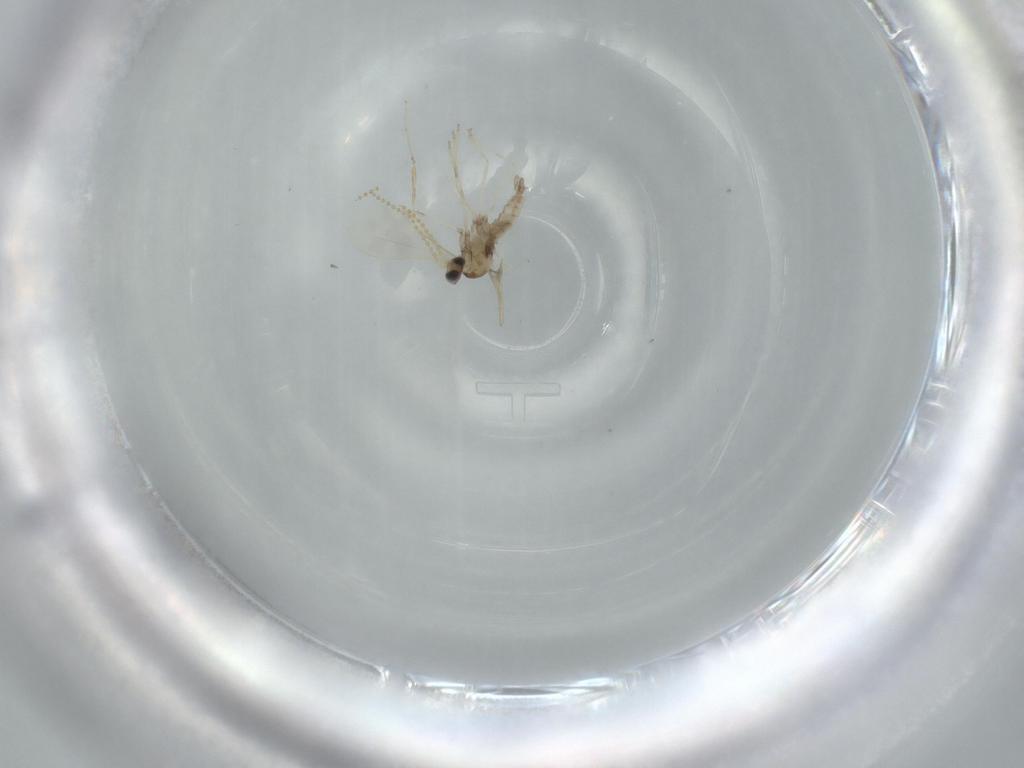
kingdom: Animalia
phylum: Arthropoda
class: Insecta
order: Diptera
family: Cecidomyiidae
